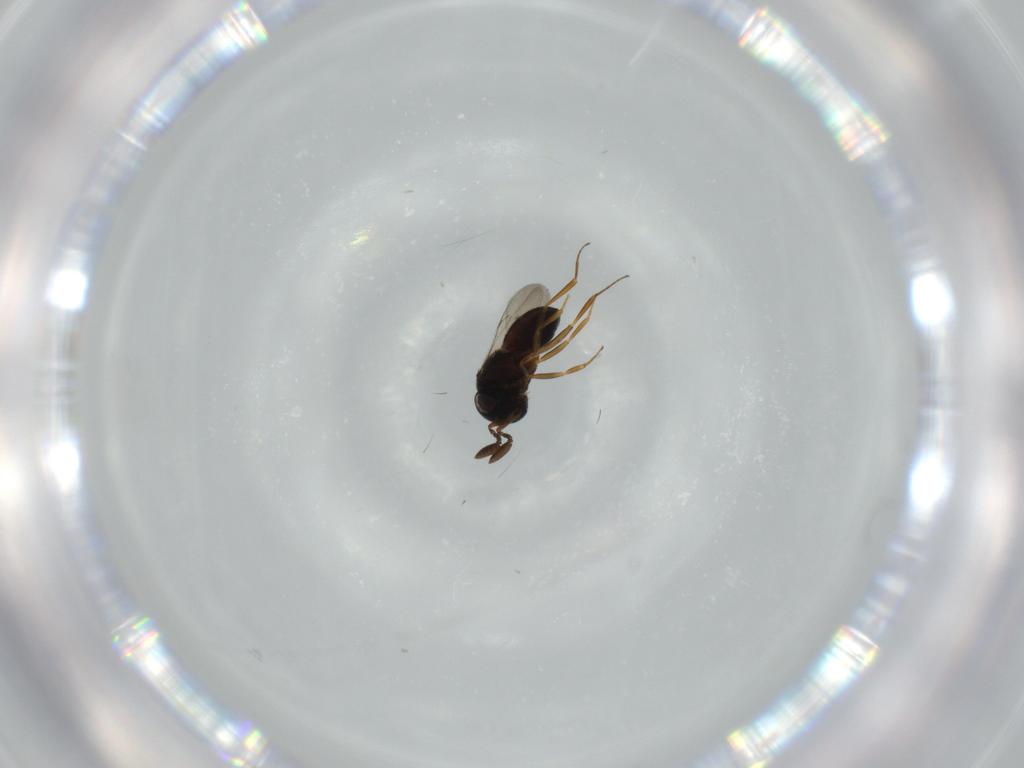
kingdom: Animalia
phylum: Arthropoda
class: Insecta
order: Coleoptera
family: Curculionidae
